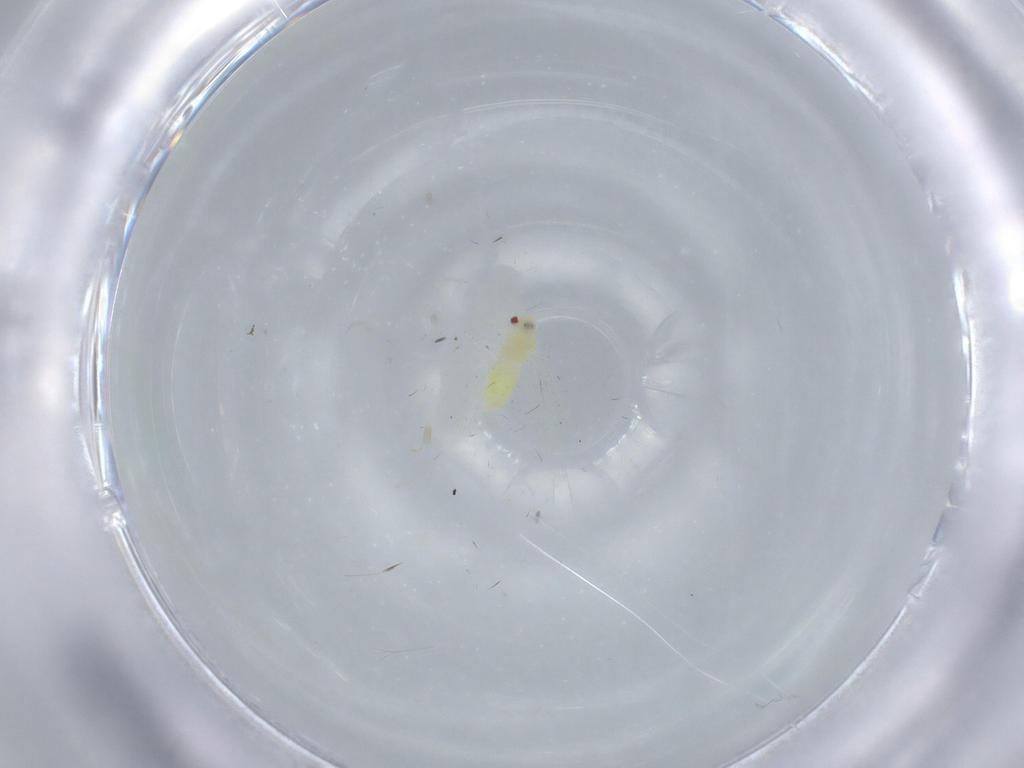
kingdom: Animalia
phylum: Arthropoda
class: Insecta
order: Hemiptera
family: Aleyrodidae
